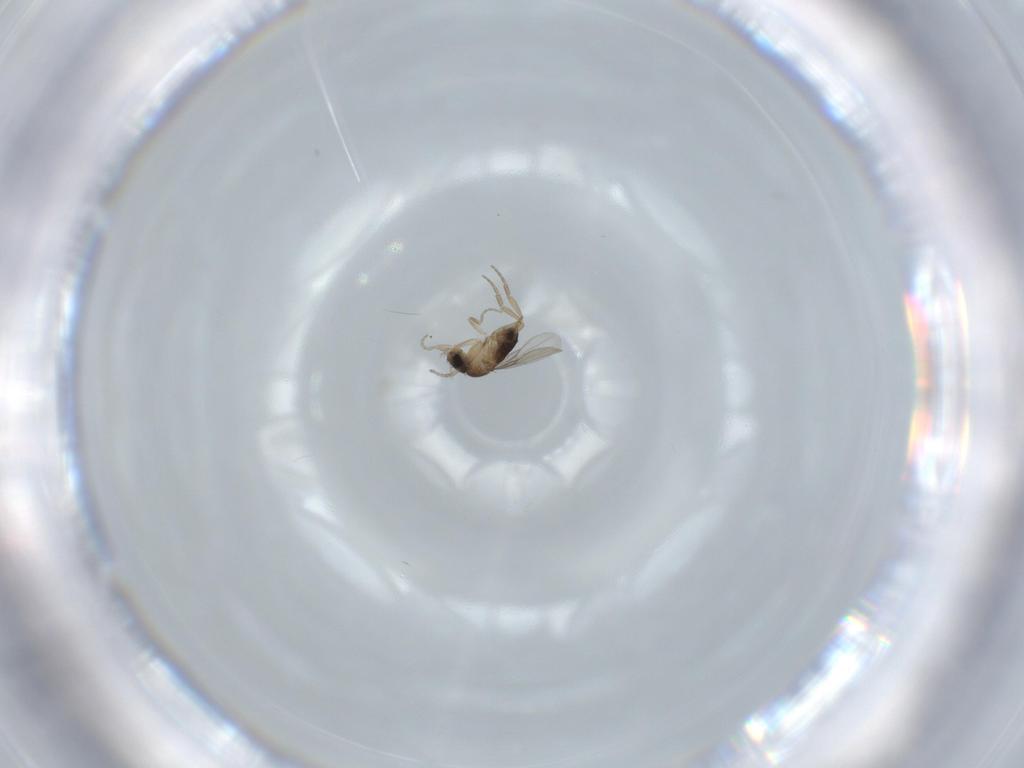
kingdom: Animalia
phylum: Arthropoda
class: Insecta
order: Diptera
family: Phoridae
